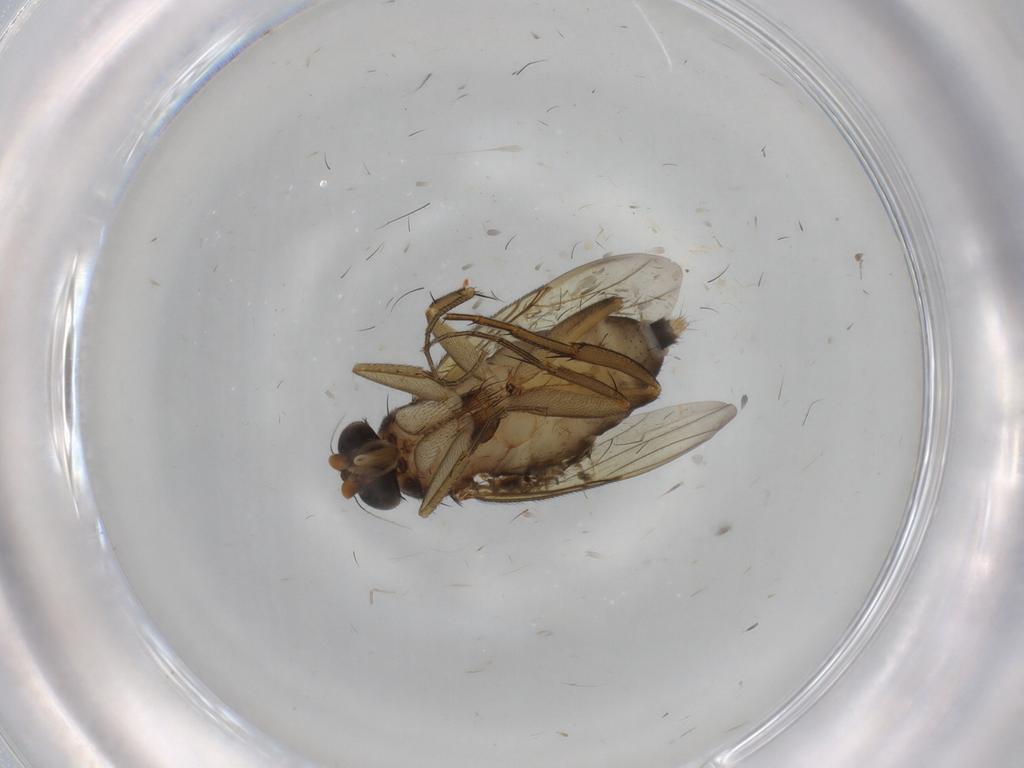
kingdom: Animalia
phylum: Arthropoda
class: Insecta
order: Diptera
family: Cecidomyiidae
